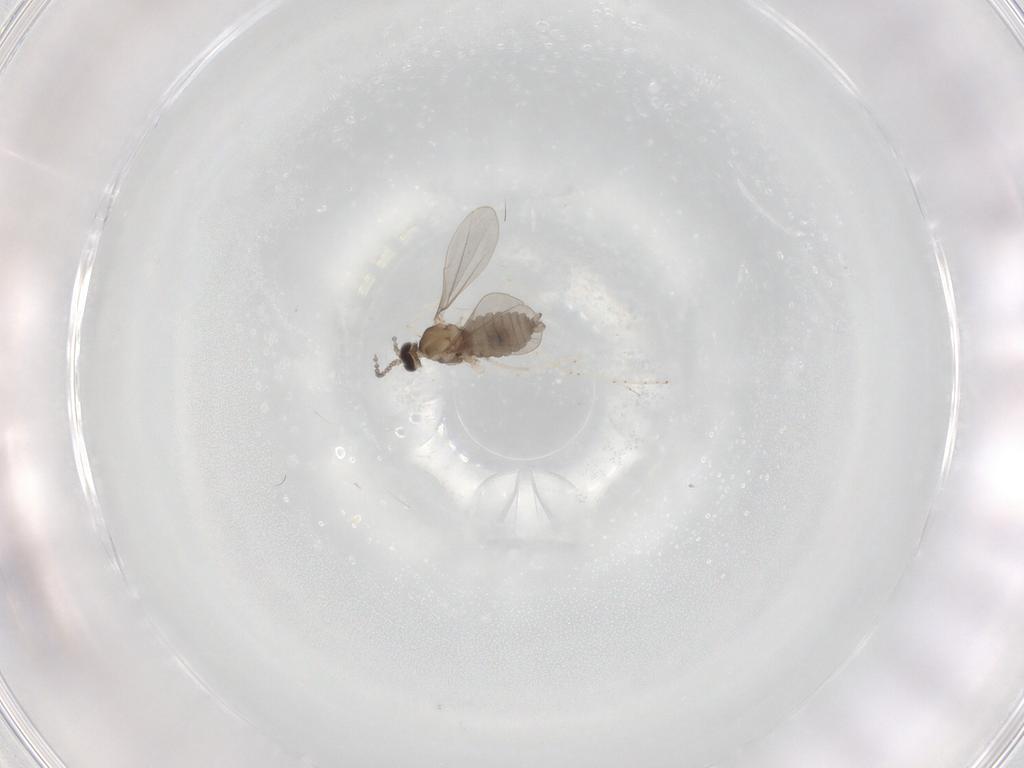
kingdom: Animalia
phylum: Arthropoda
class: Insecta
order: Diptera
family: Cecidomyiidae
